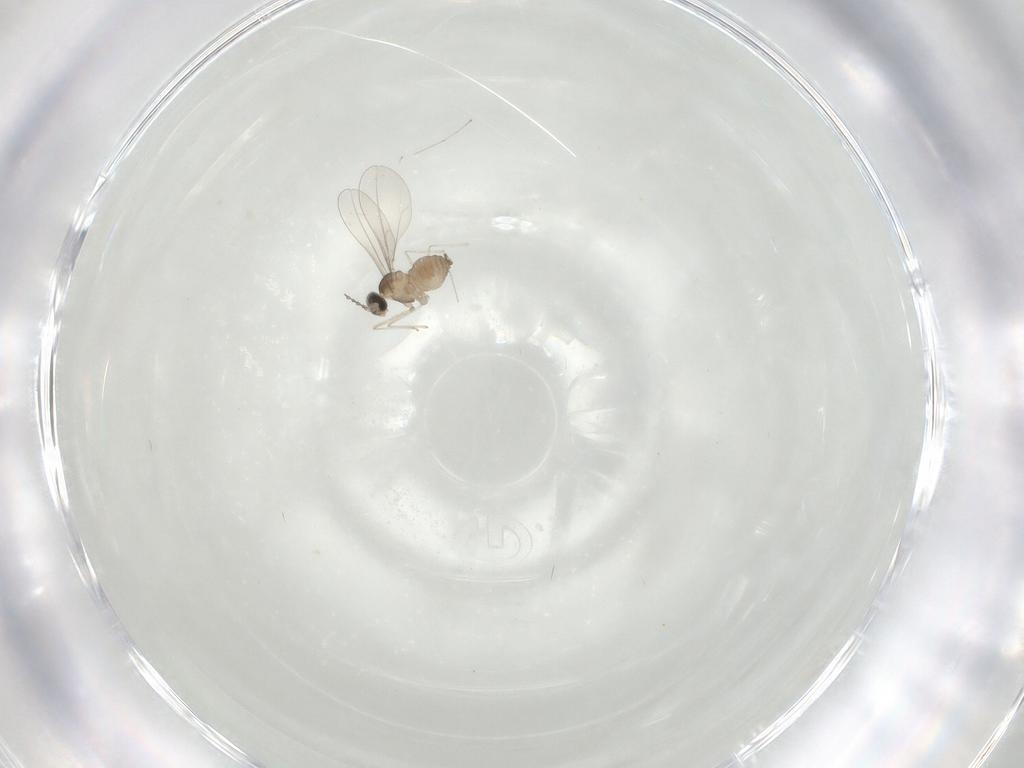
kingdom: Animalia
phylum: Arthropoda
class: Insecta
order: Diptera
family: Cecidomyiidae
